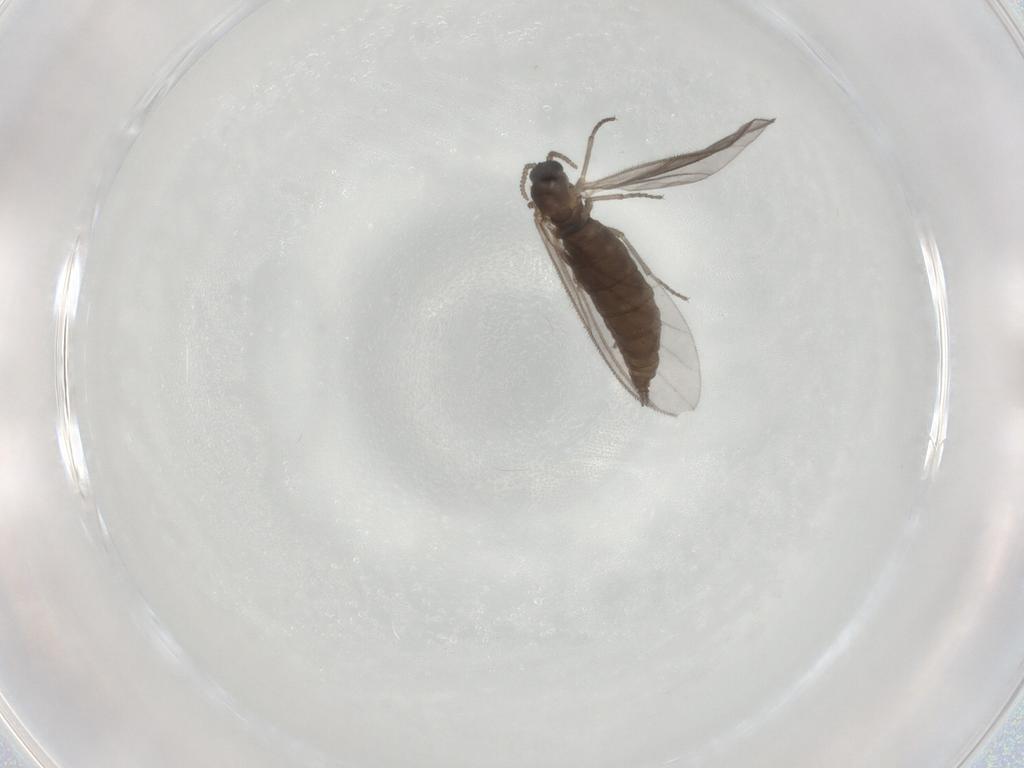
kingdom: Animalia
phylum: Arthropoda
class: Insecta
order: Diptera
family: Sciaridae
